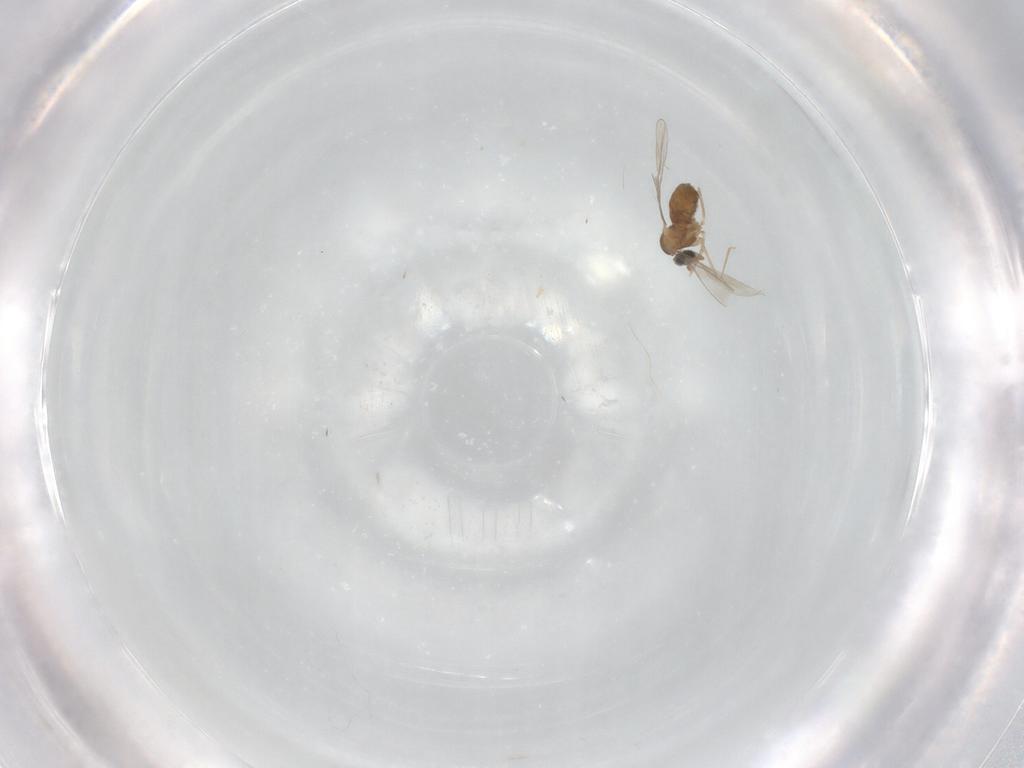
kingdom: Animalia
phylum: Arthropoda
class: Insecta
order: Diptera
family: Cecidomyiidae
